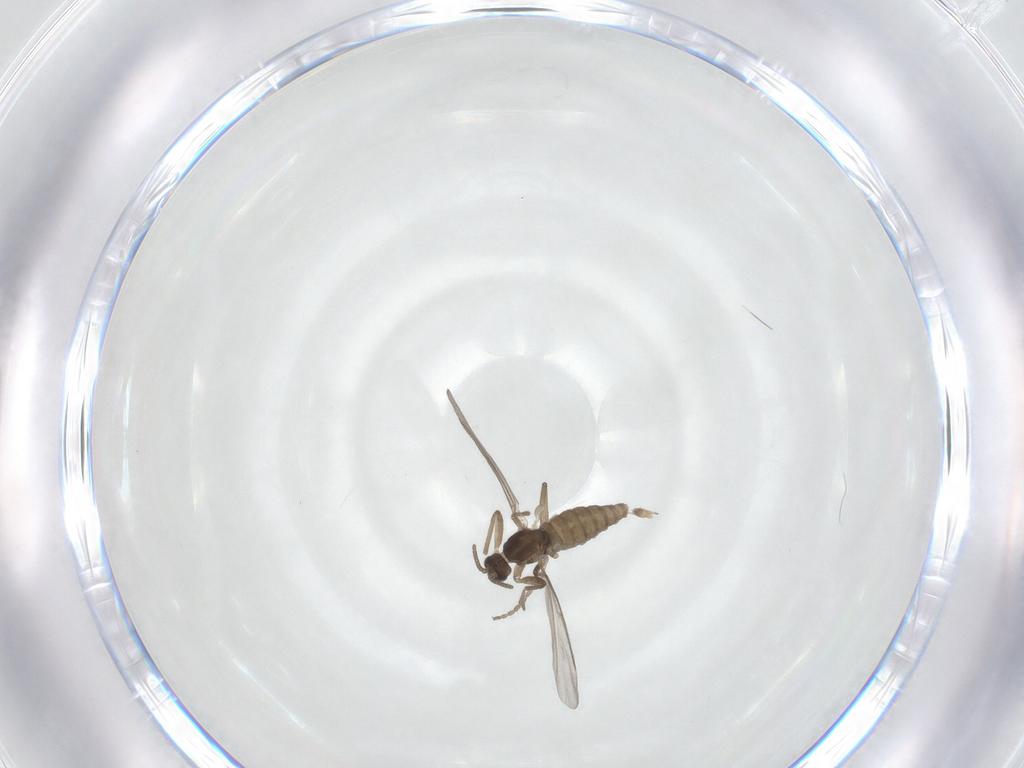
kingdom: Animalia
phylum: Arthropoda
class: Insecta
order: Diptera
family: Cecidomyiidae
